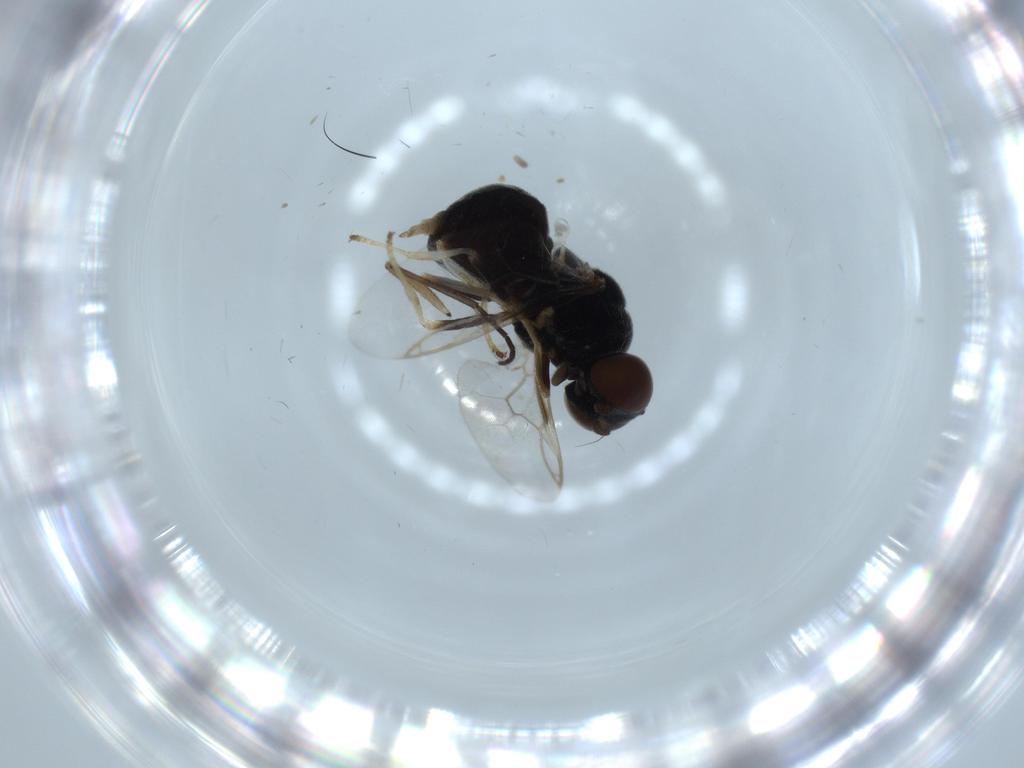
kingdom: Animalia
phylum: Arthropoda
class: Insecta
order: Diptera
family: Stratiomyidae
